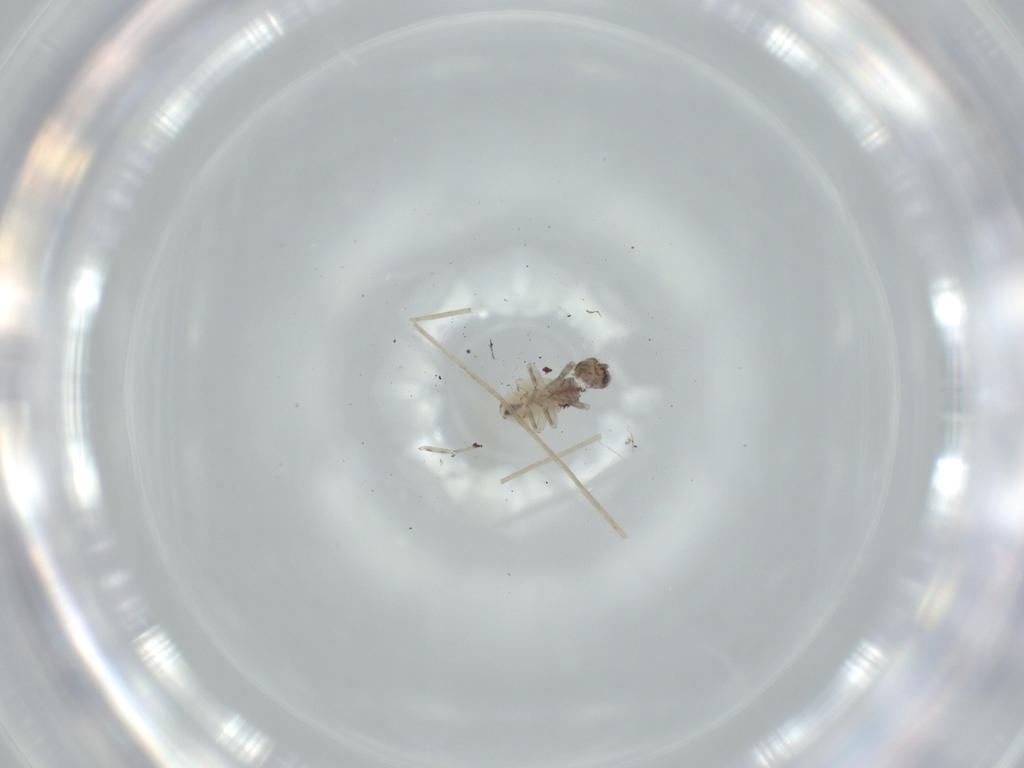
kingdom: Animalia
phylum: Arthropoda
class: Insecta
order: Psocodea
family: Lepidopsocidae
